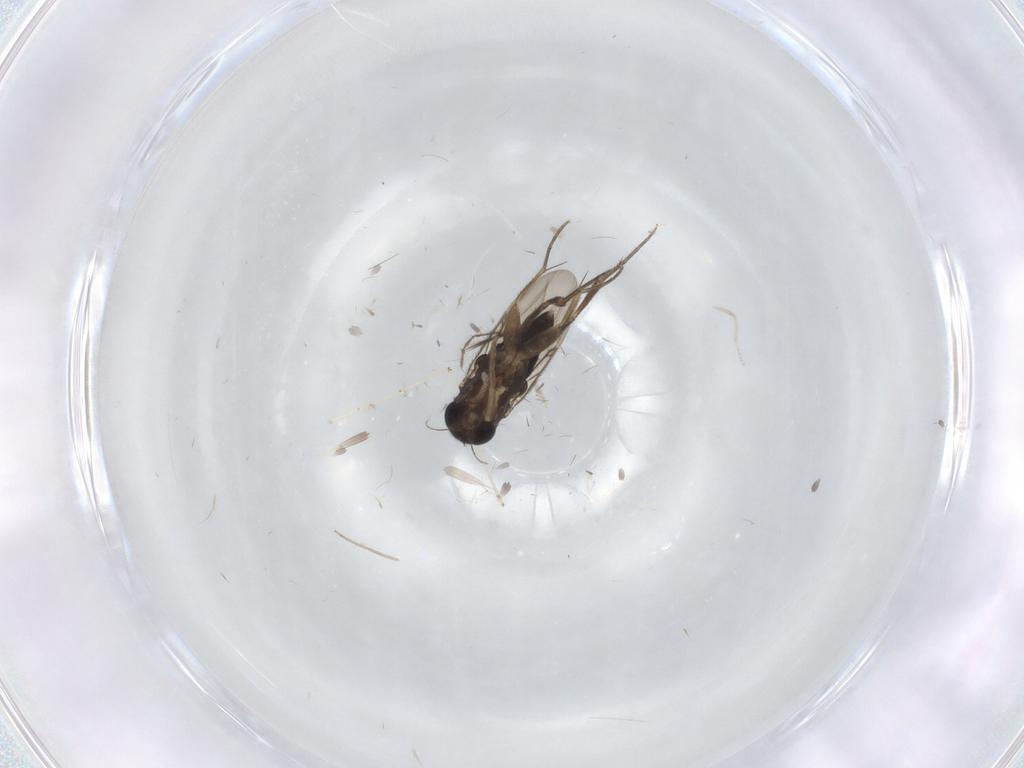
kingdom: Animalia
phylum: Arthropoda
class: Insecta
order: Diptera
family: Phoridae
